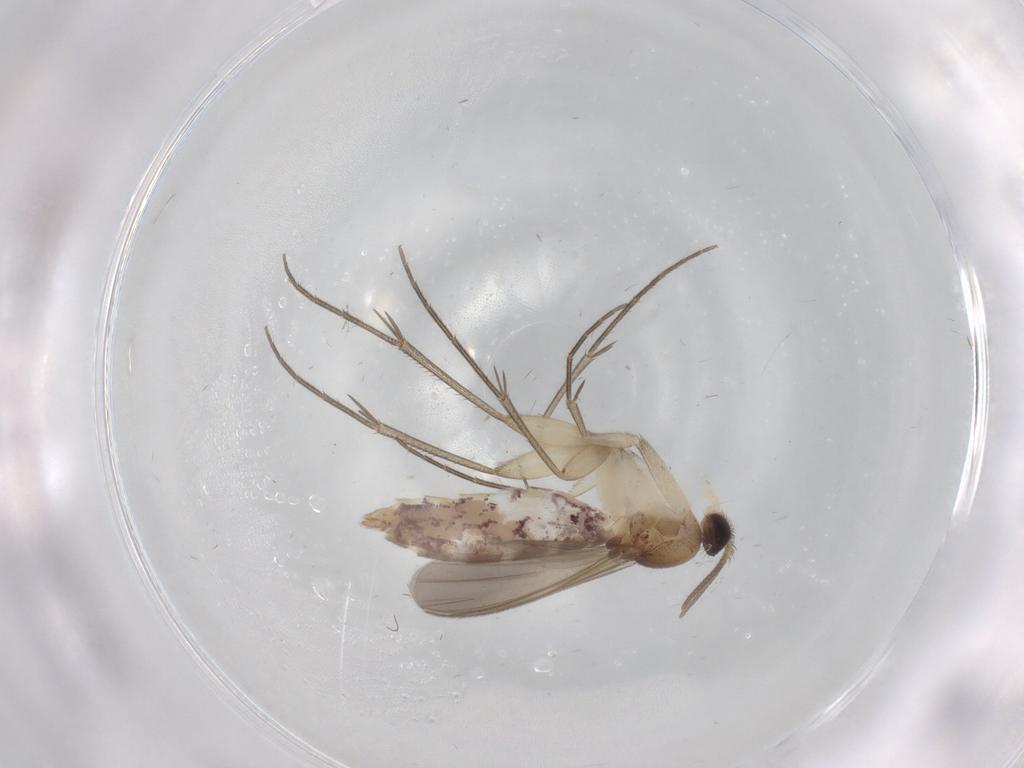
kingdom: Animalia
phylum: Arthropoda
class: Insecta
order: Diptera
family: Mycetophilidae
